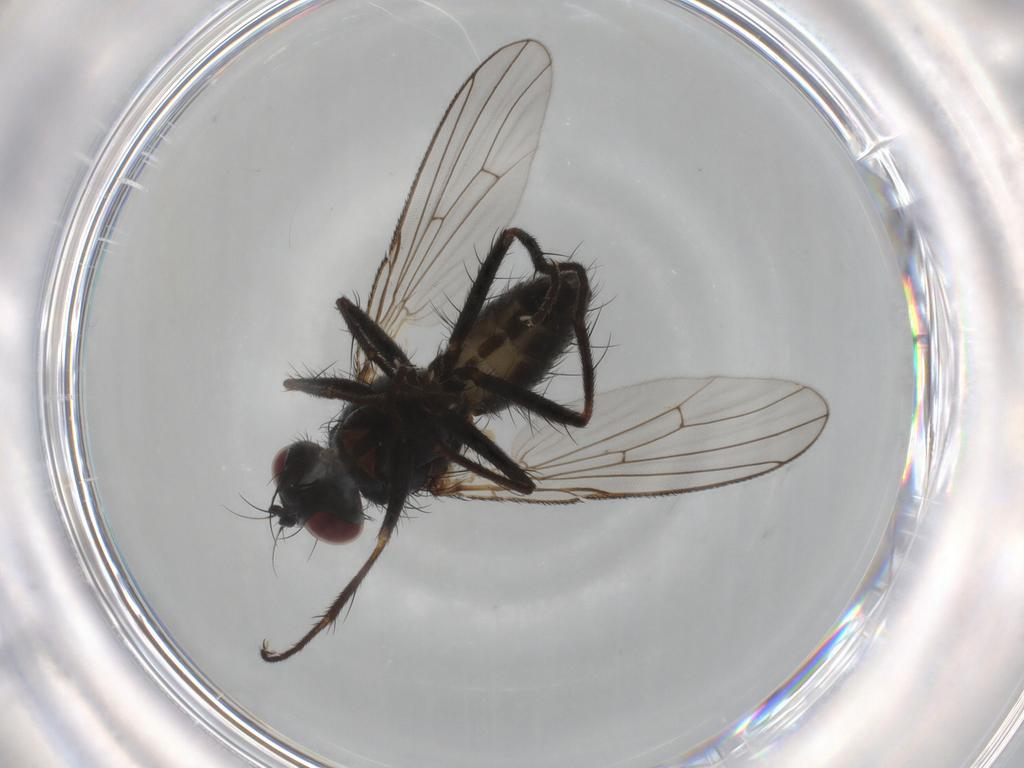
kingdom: Animalia
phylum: Arthropoda
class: Insecta
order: Diptera
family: Muscidae
